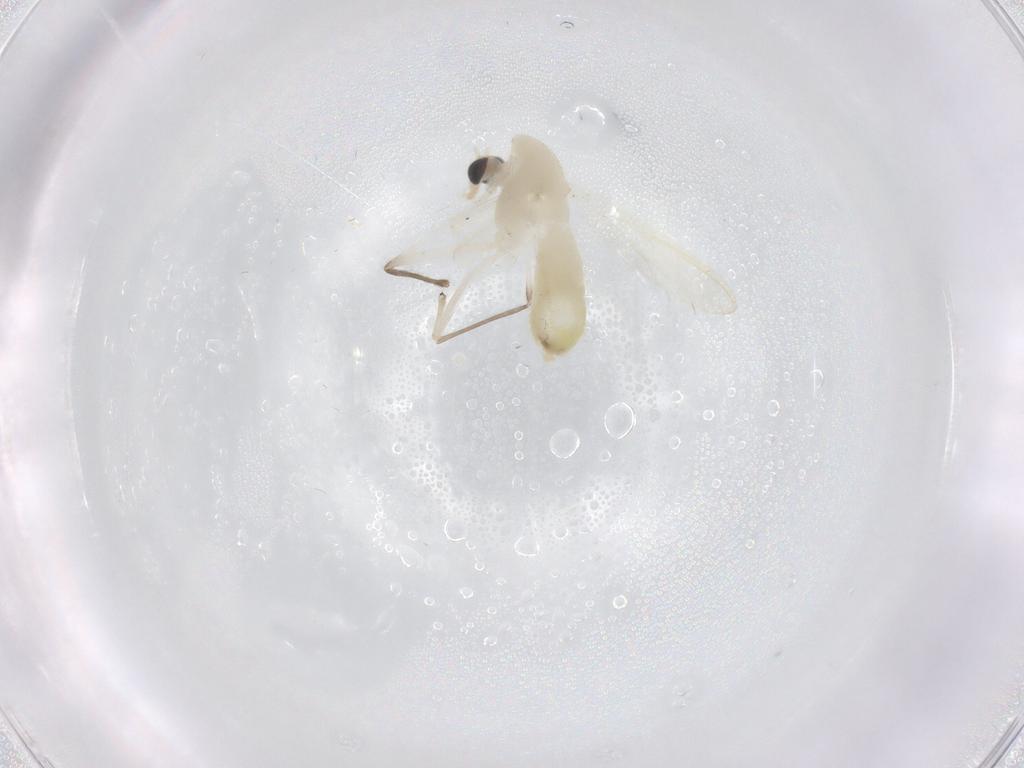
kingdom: Animalia
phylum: Arthropoda
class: Insecta
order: Diptera
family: Chironomidae
